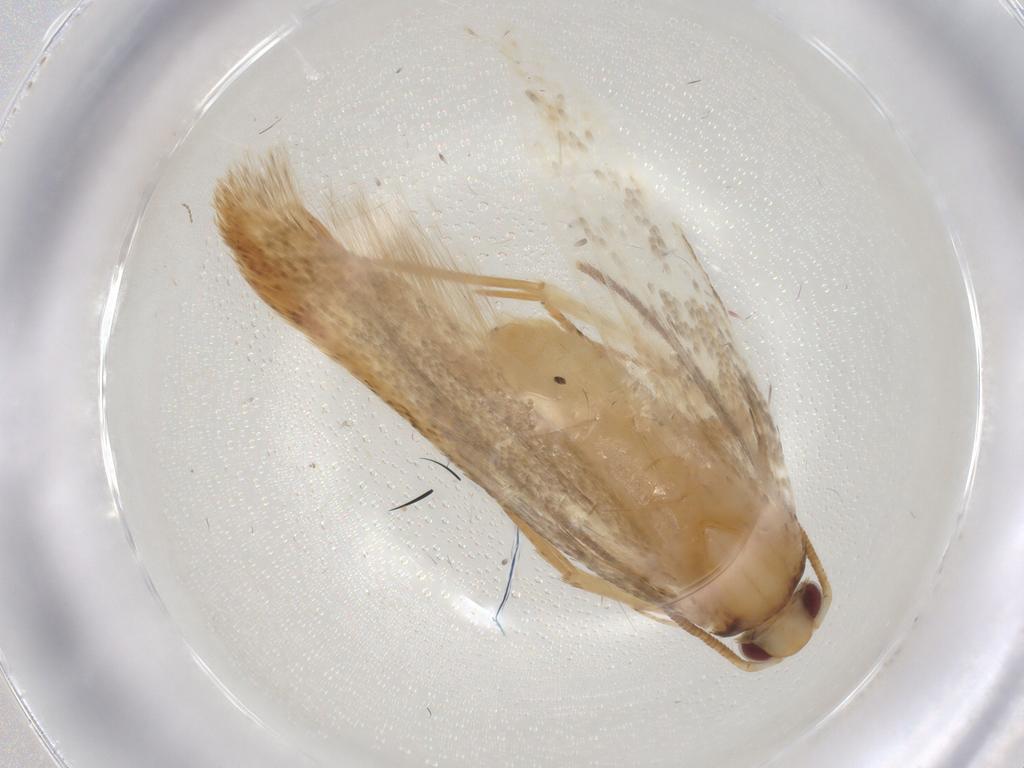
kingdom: Animalia
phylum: Arthropoda
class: Insecta
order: Lepidoptera
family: Gelechiidae
